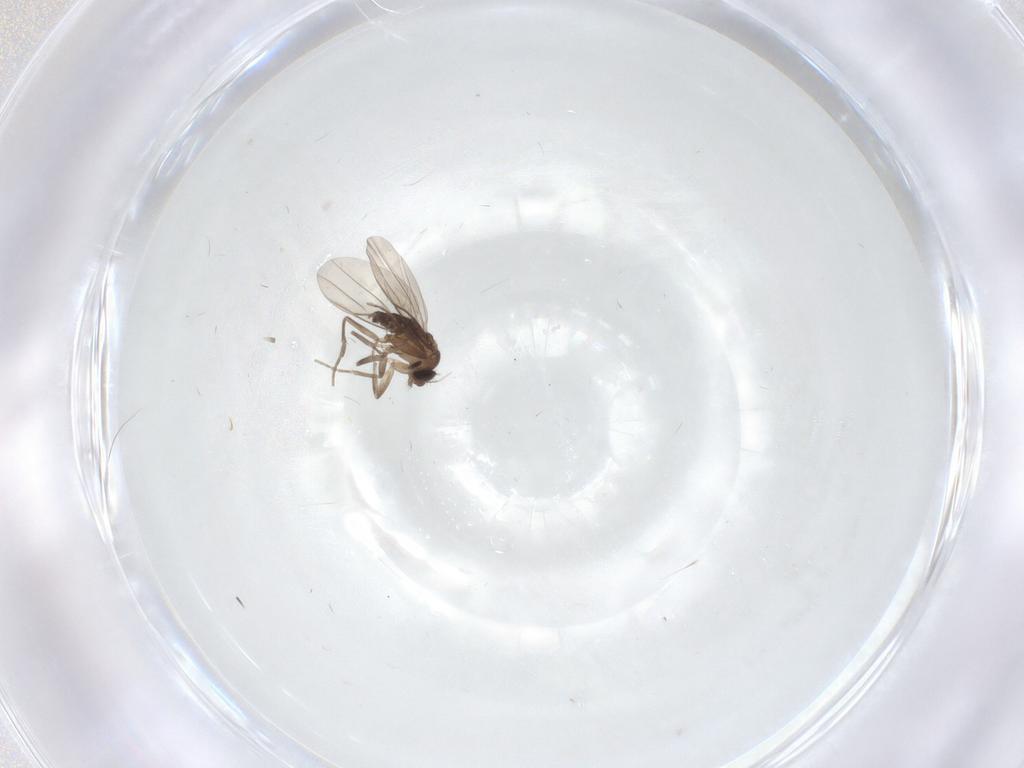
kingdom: Animalia
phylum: Arthropoda
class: Insecta
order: Diptera
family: Phoridae
